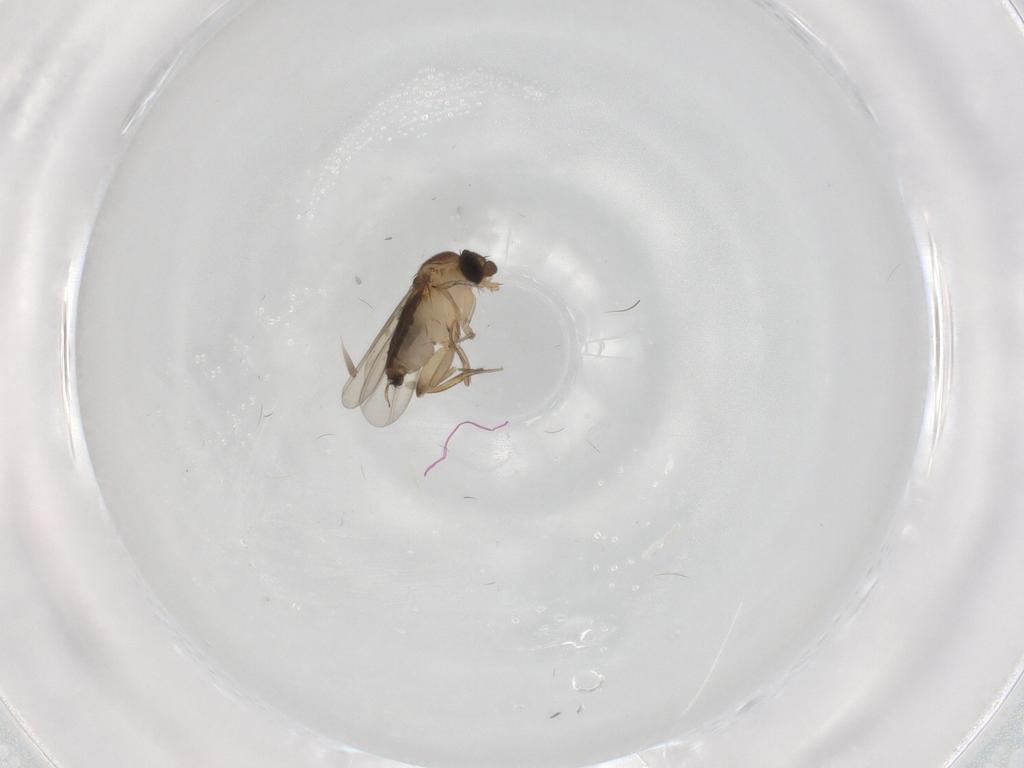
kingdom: Animalia
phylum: Arthropoda
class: Insecta
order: Diptera
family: Phoridae
